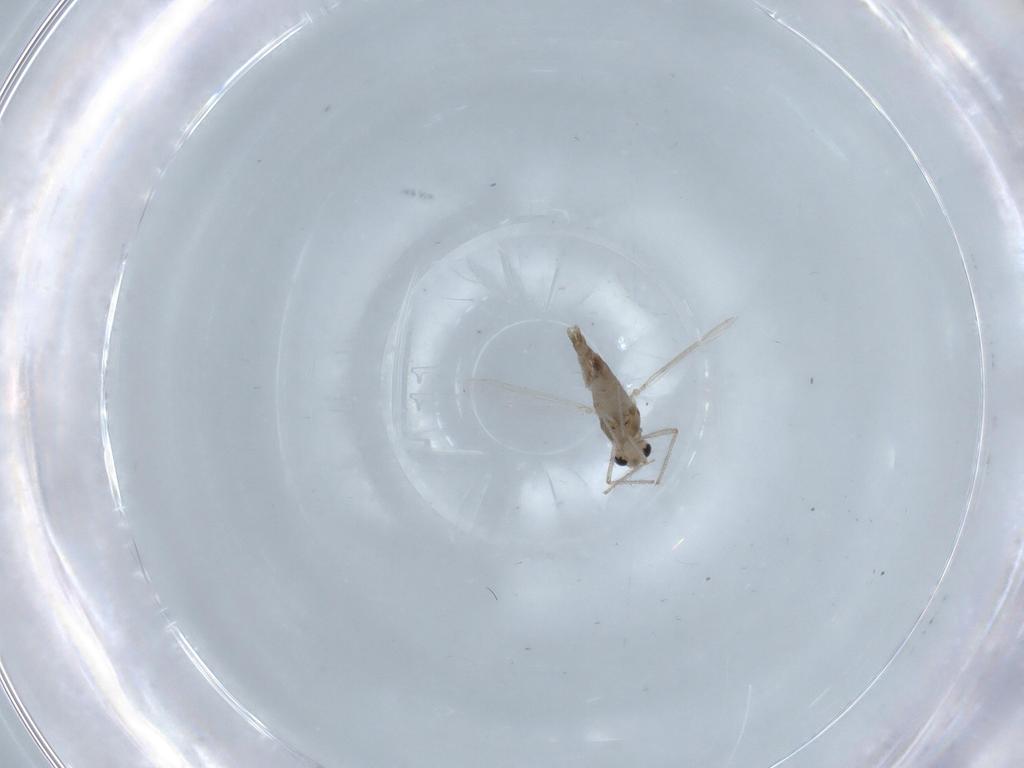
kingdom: Animalia
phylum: Arthropoda
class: Insecta
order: Diptera
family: Chironomidae
